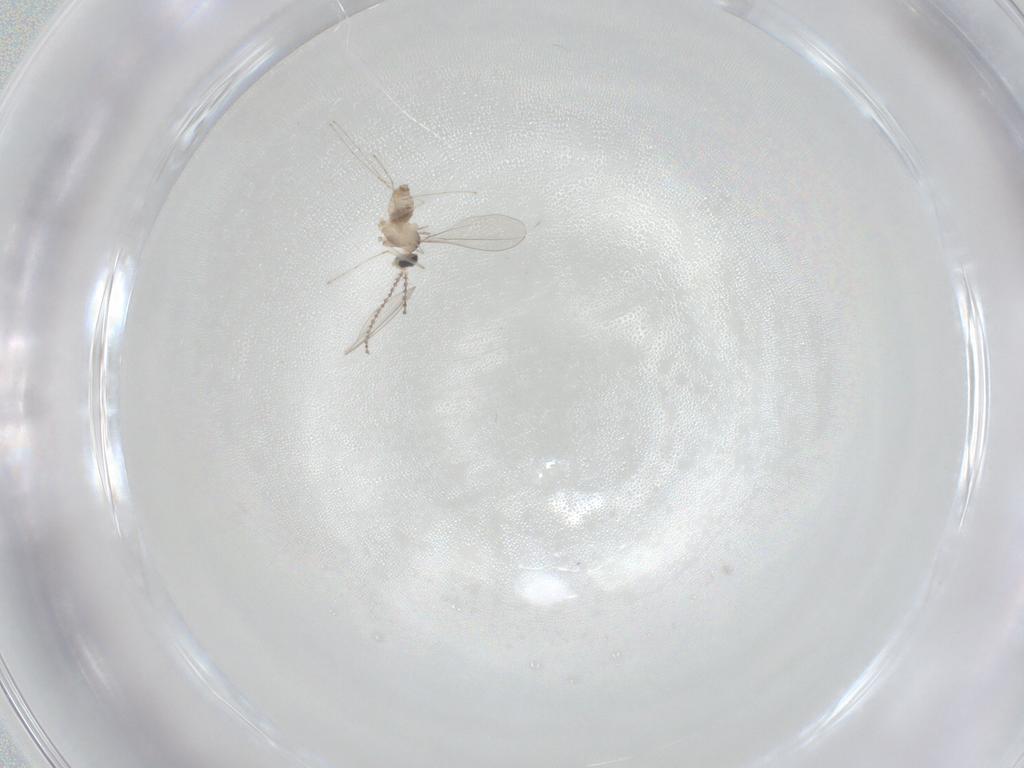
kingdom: Animalia
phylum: Arthropoda
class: Insecta
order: Diptera
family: Cecidomyiidae
